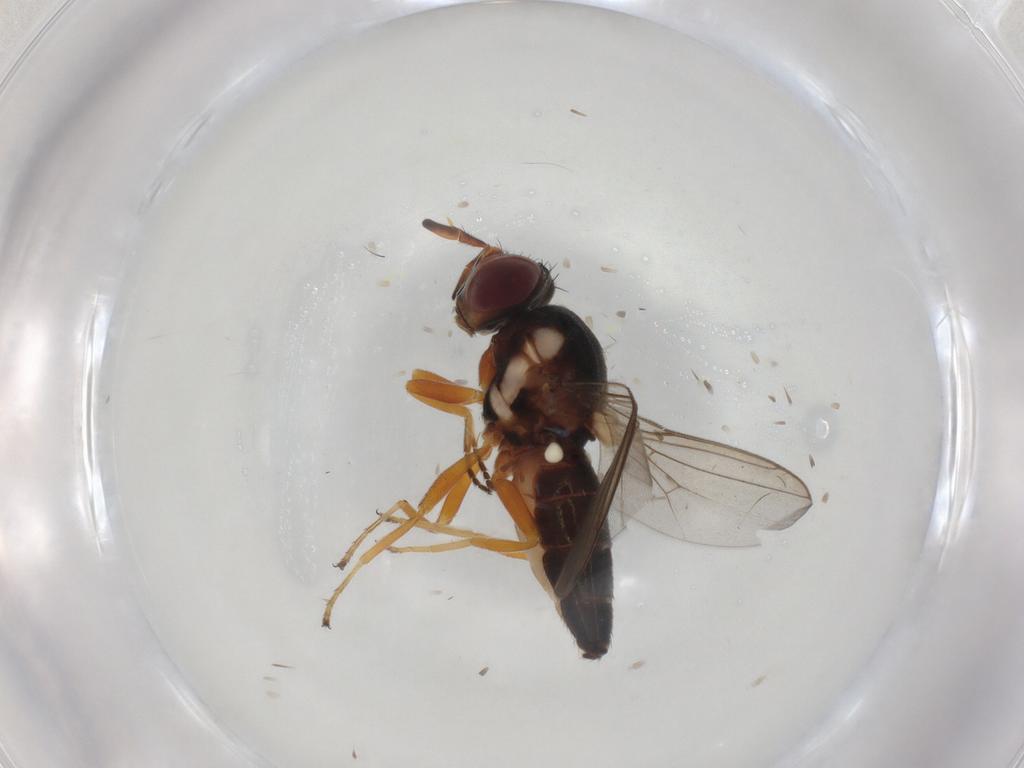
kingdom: Animalia
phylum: Arthropoda
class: Insecta
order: Diptera
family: Chloropidae
